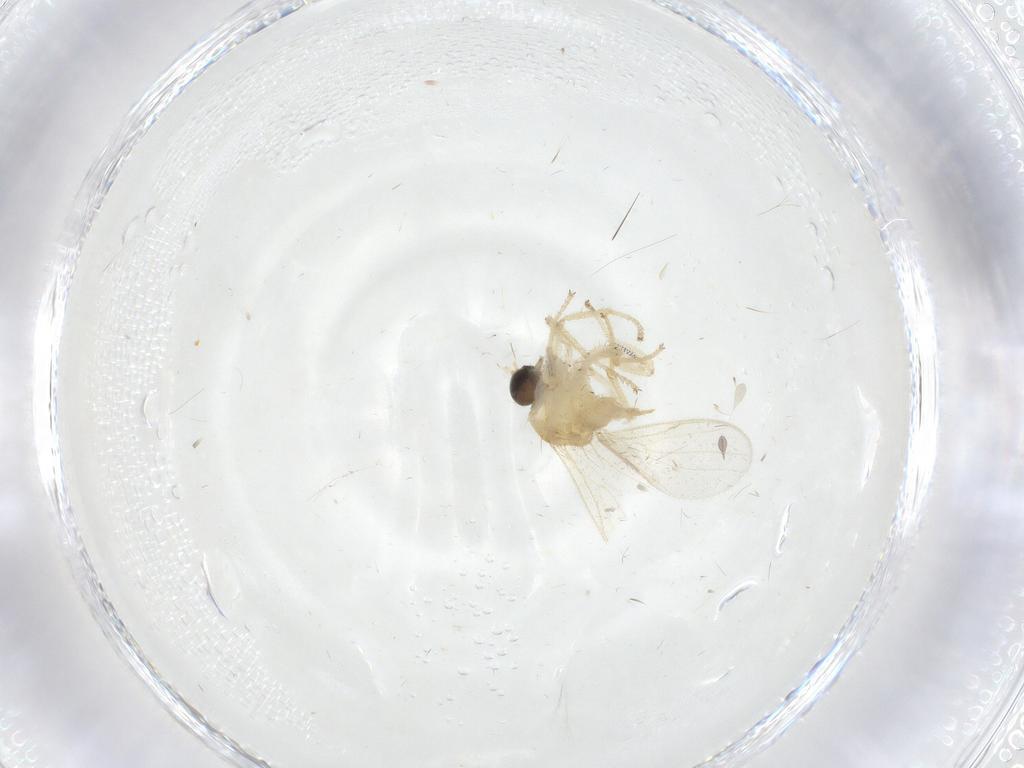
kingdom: Animalia
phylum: Arthropoda
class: Insecta
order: Diptera
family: Sciaridae
